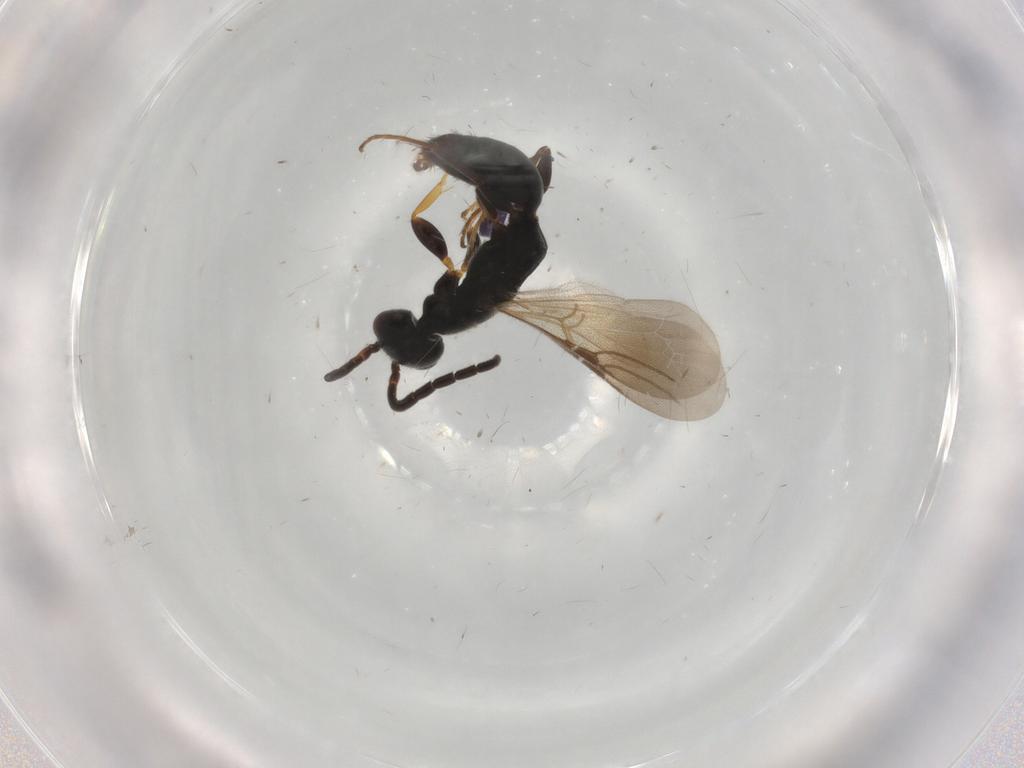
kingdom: Animalia
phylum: Arthropoda
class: Insecta
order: Hymenoptera
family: Bethylidae
